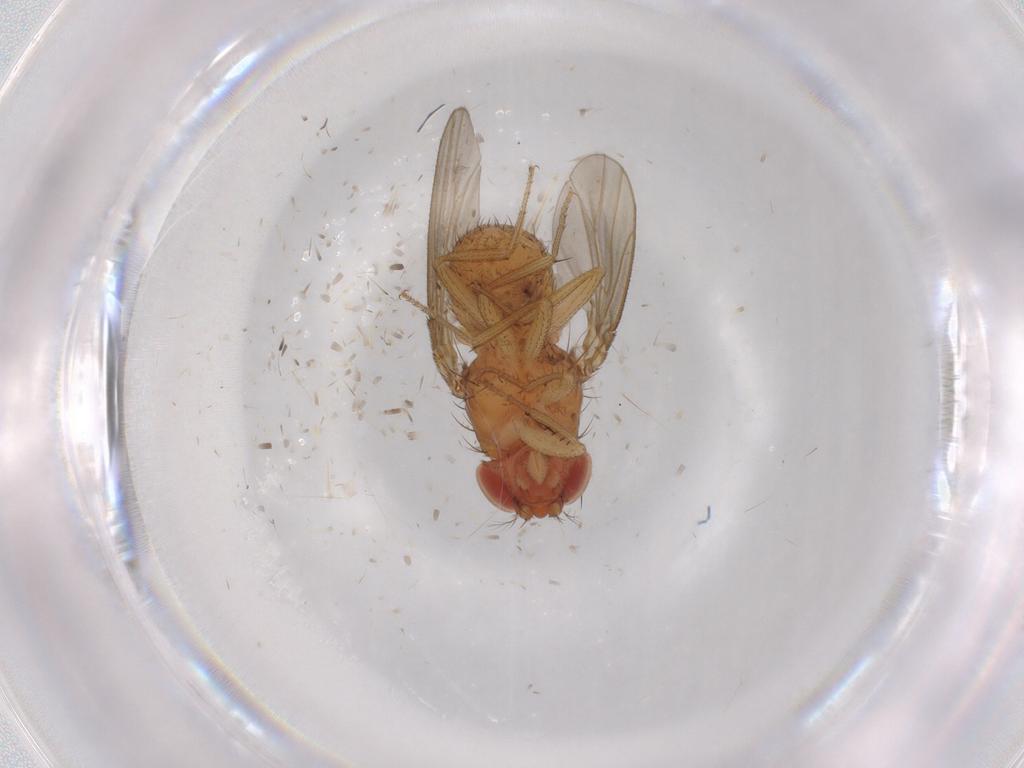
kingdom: Animalia
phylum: Arthropoda
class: Insecta
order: Diptera
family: Drosophilidae
